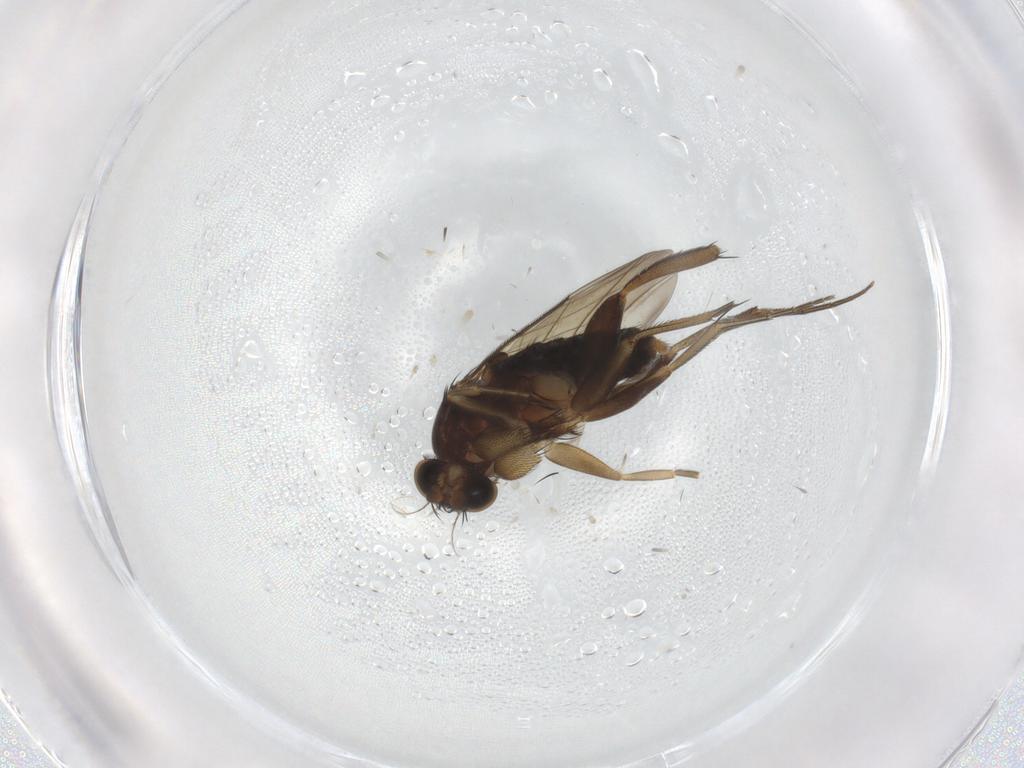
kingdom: Animalia
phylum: Arthropoda
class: Insecta
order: Diptera
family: Phoridae
